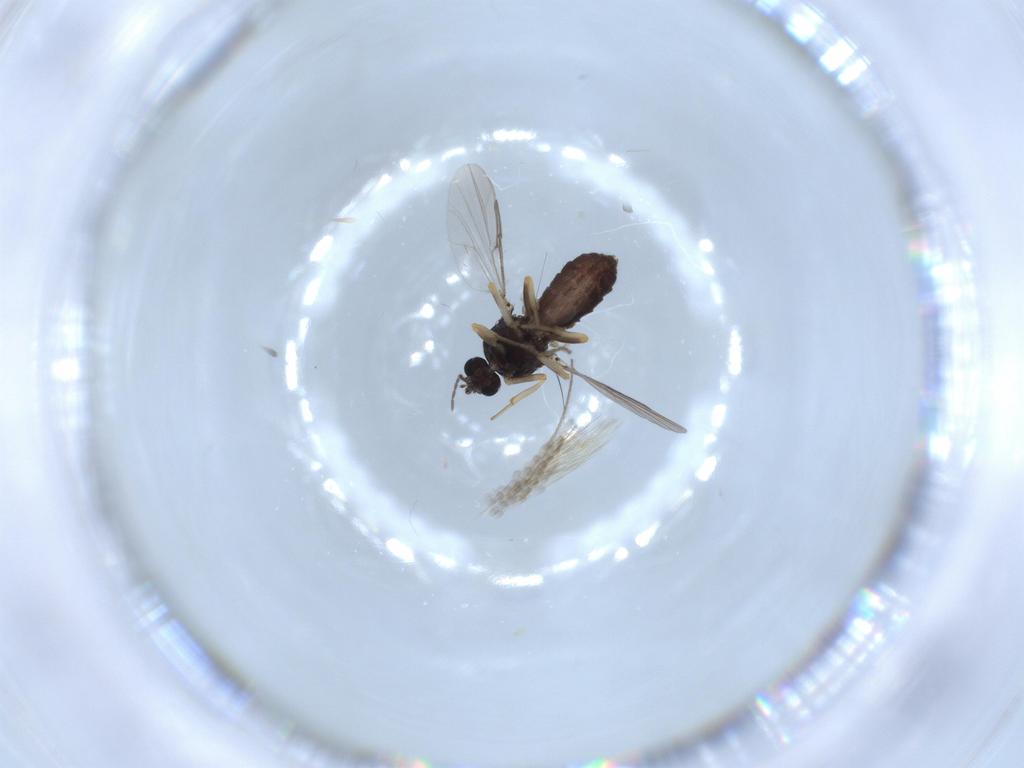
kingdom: Animalia
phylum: Arthropoda
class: Insecta
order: Diptera
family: Ceratopogonidae
